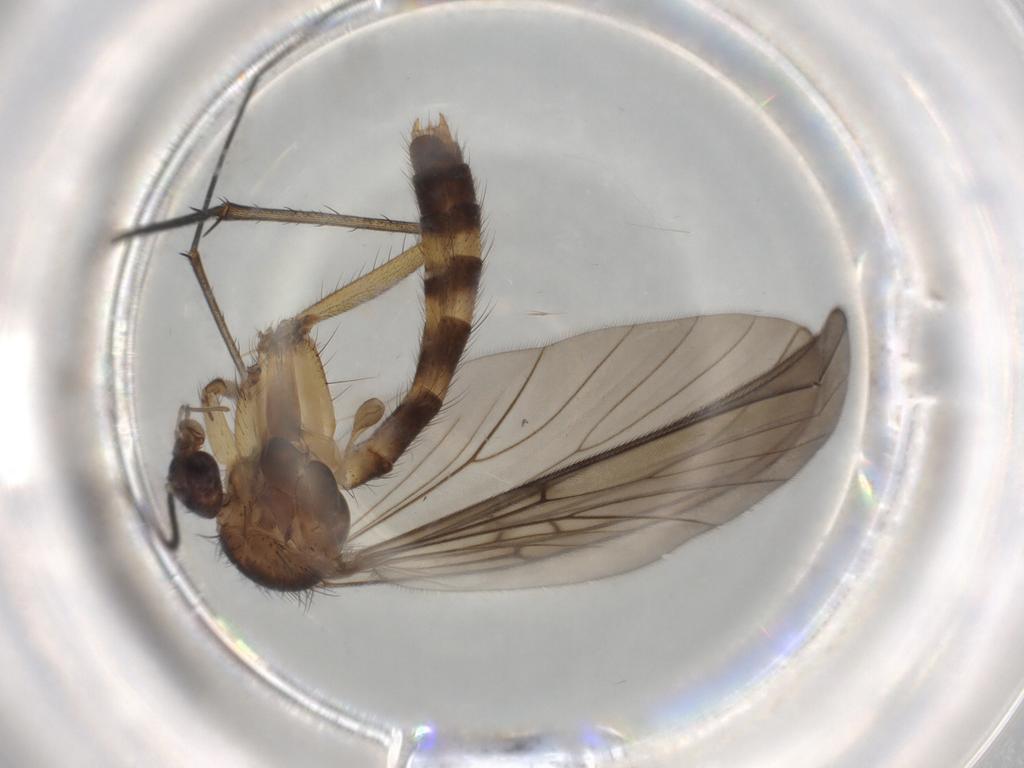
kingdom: Animalia
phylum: Arthropoda
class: Insecta
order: Diptera
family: Mycetophilidae
